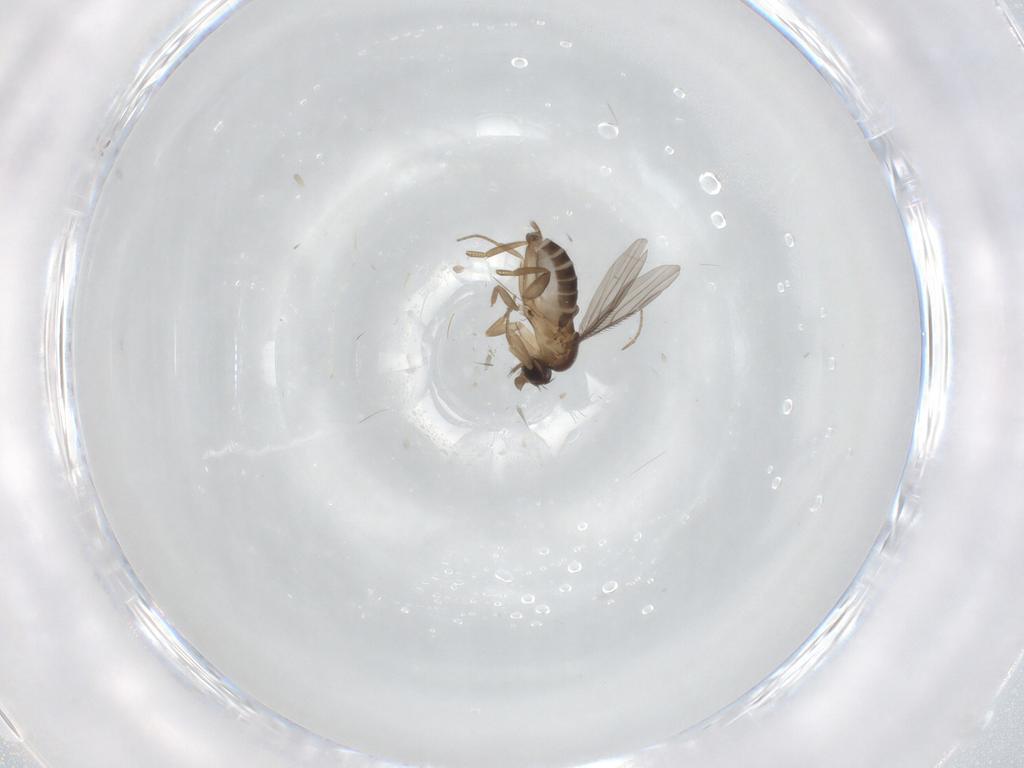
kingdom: Animalia
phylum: Arthropoda
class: Insecta
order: Diptera
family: Phoridae
